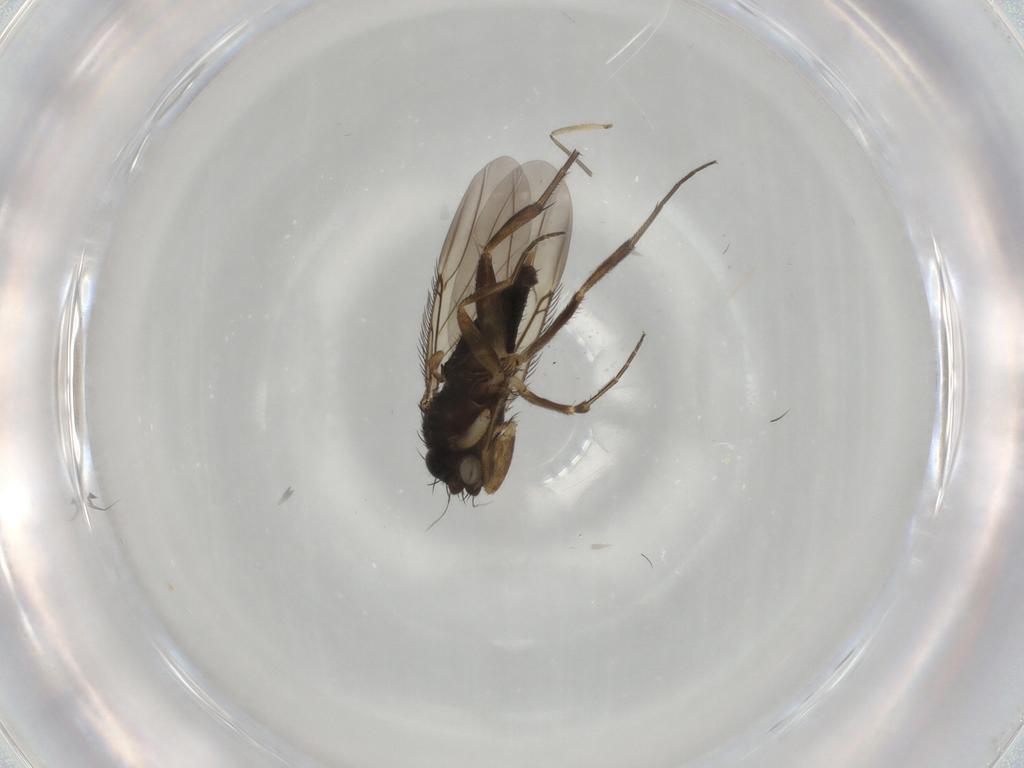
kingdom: Animalia
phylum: Arthropoda
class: Insecta
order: Diptera
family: Phoridae
